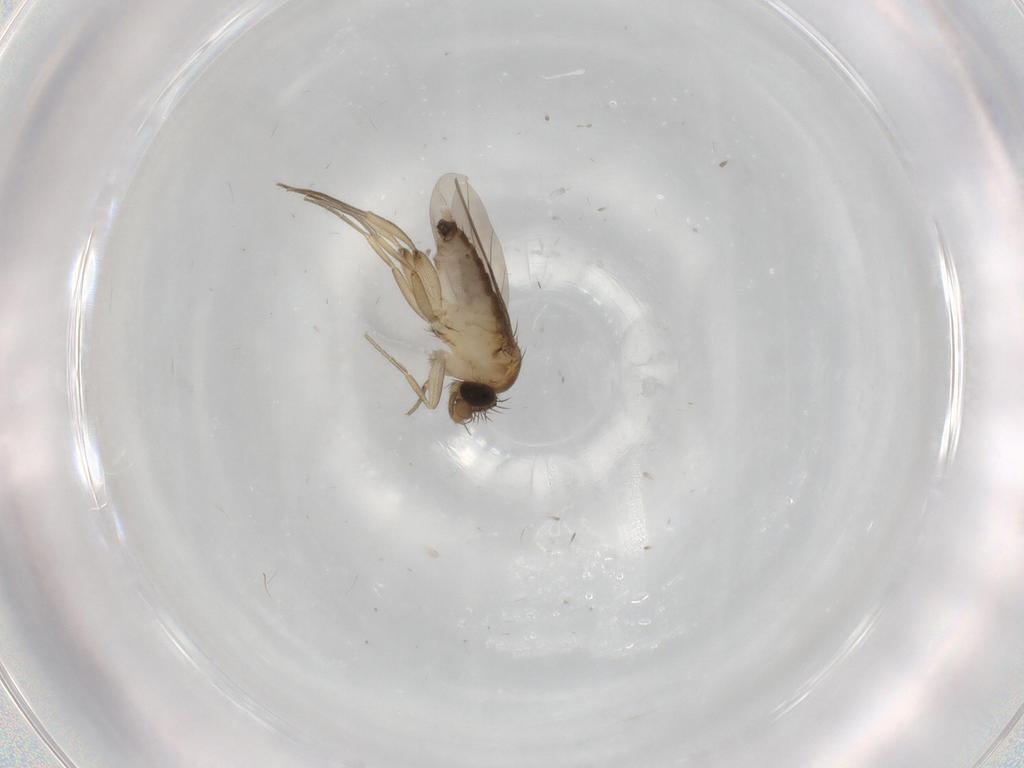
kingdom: Animalia
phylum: Arthropoda
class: Insecta
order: Diptera
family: Phoridae
